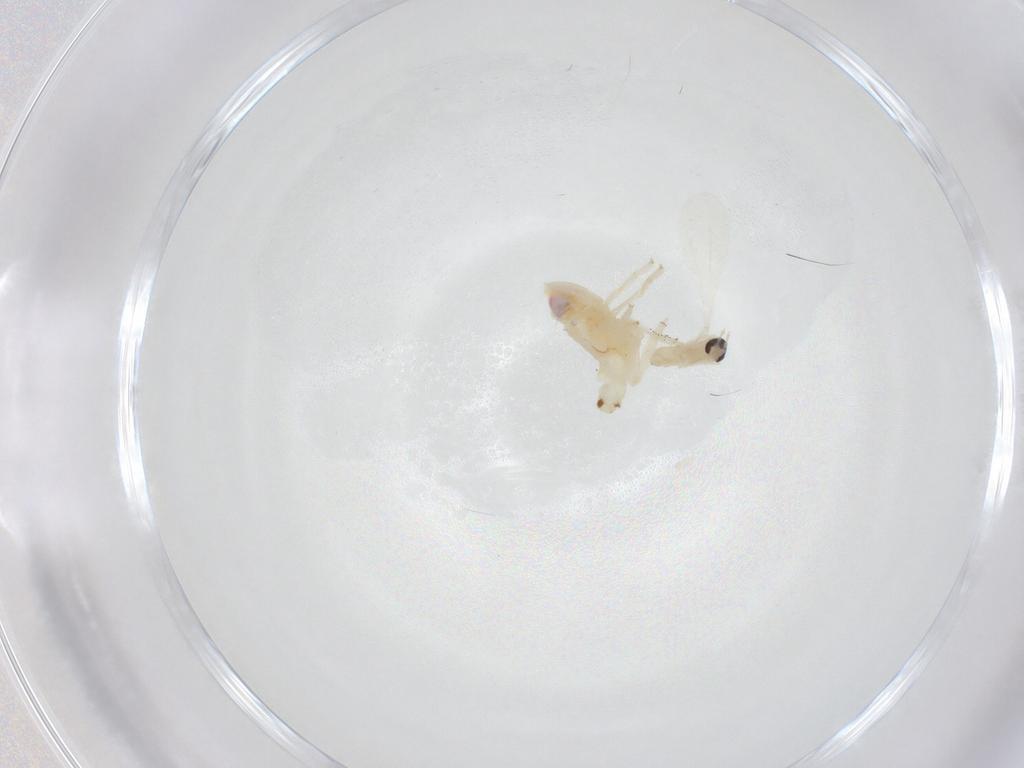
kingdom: Animalia
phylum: Arthropoda
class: Insecta
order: Hemiptera
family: Nogodinidae
